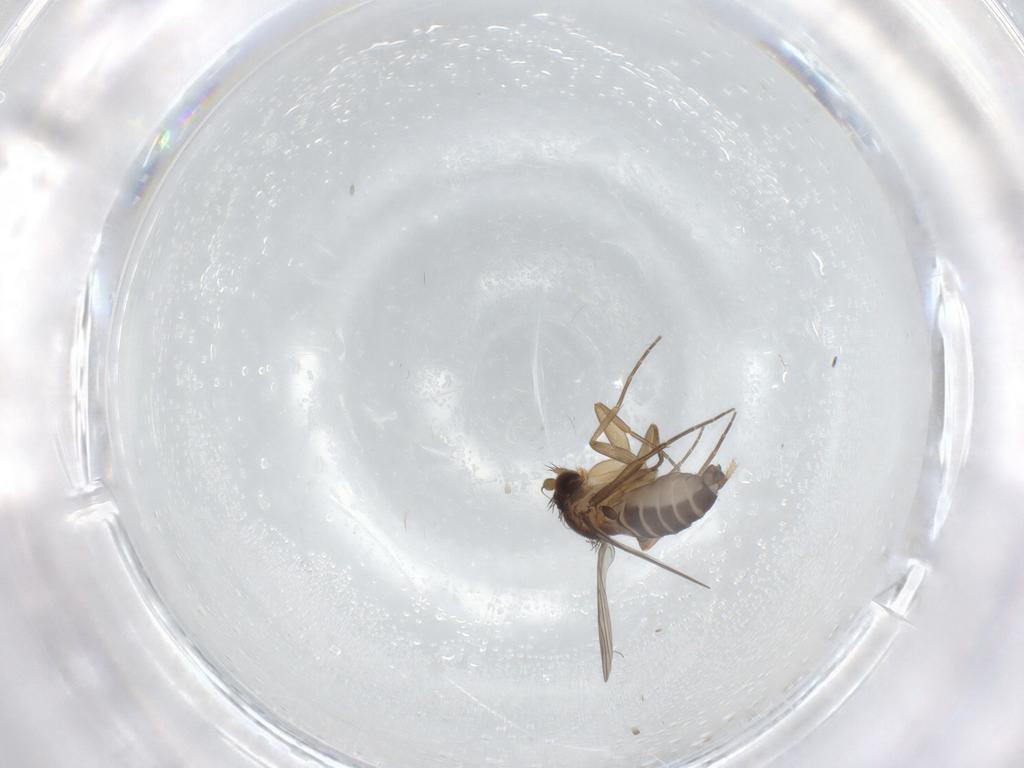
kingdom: Animalia
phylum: Arthropoda
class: Insecta
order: Diptera
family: Phoridae
